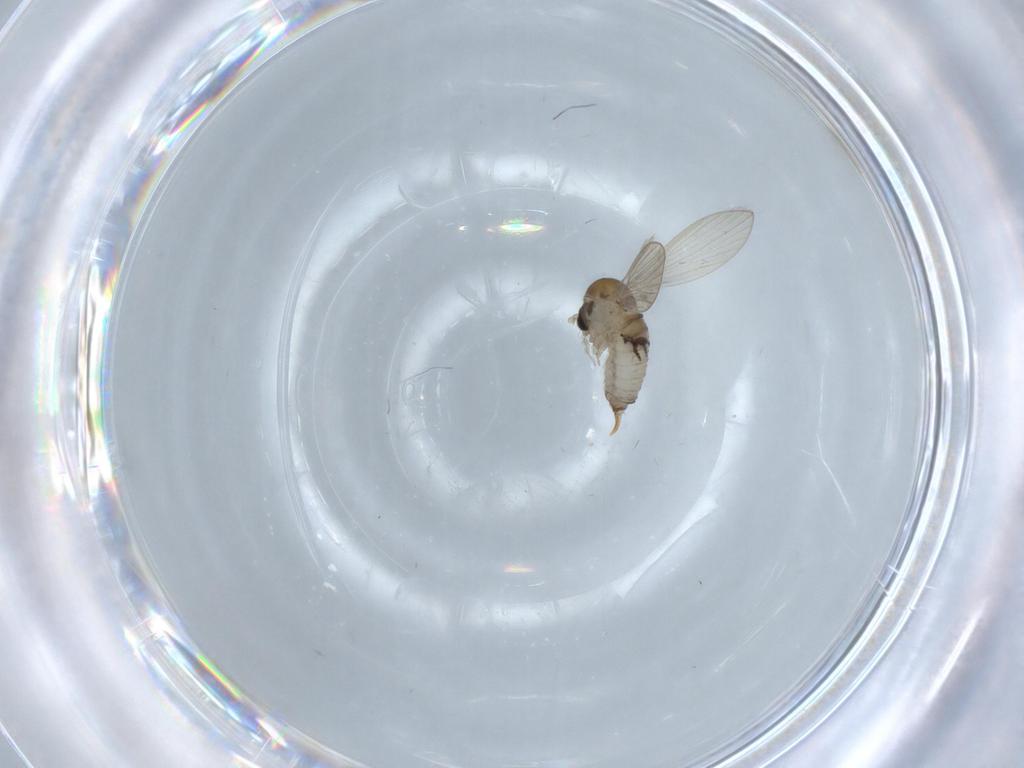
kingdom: Animalia
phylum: Arthropoda
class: Insecta
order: Diptera
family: Psychodidae
